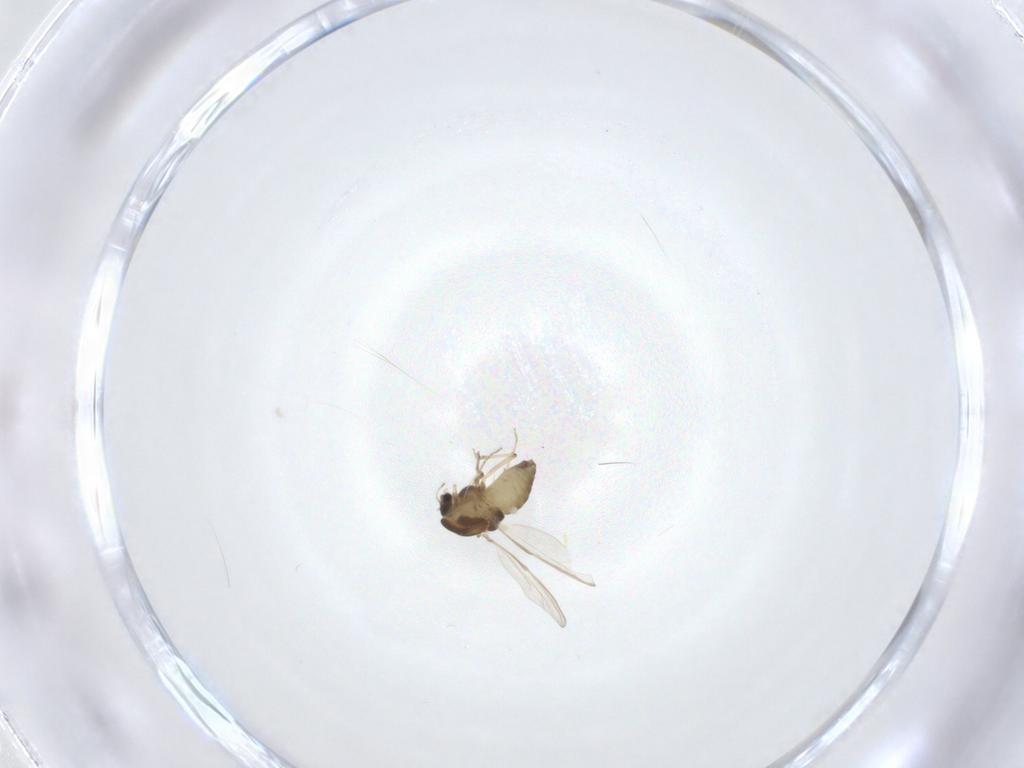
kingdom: Animalia
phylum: Arthropoda
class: Insecta
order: Diptera
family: Chironomidae
